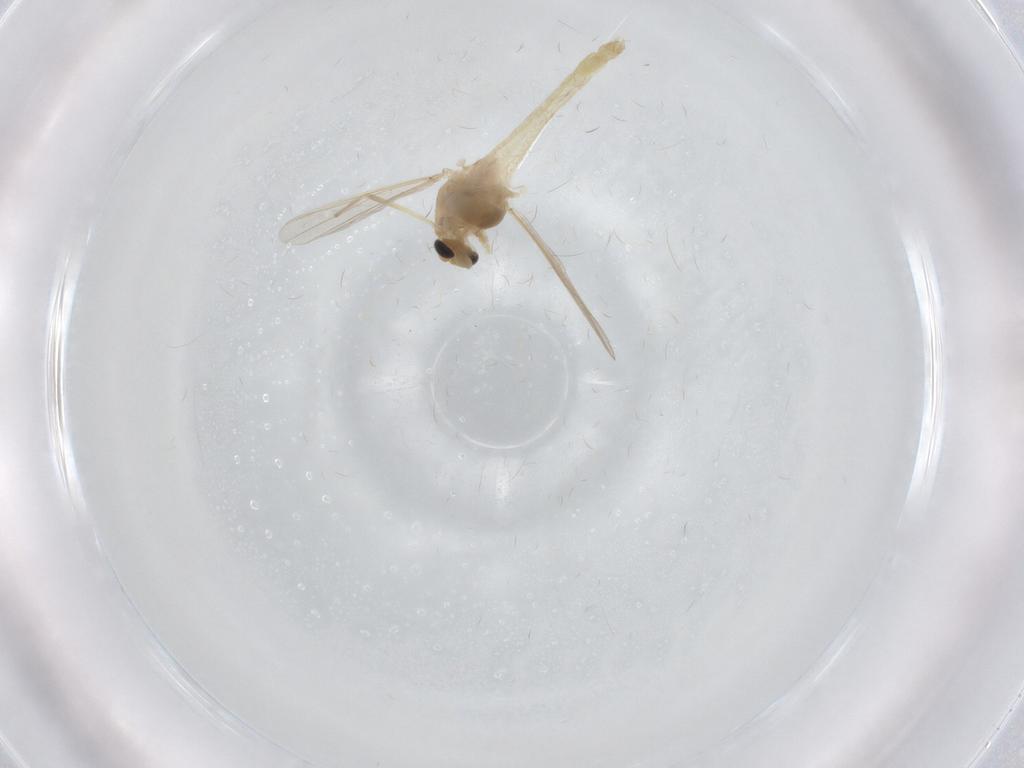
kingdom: Animalia
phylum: Arthropoda
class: Insecta
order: Diptera
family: Chironomidae
